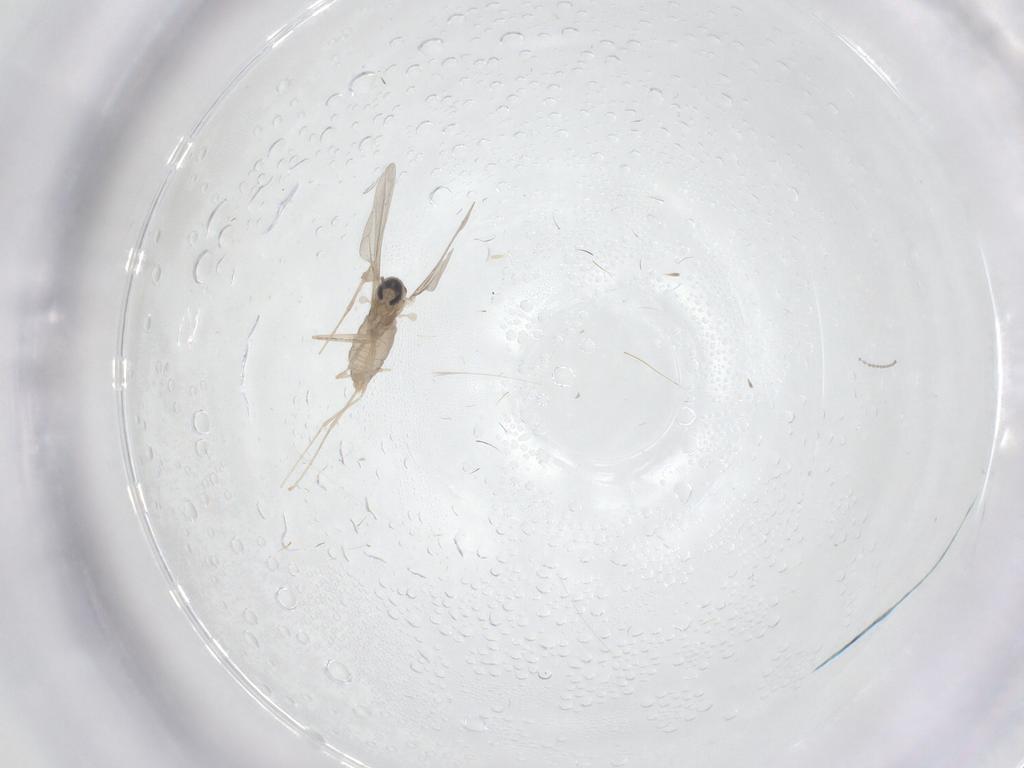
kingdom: Animalia
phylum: Arthropoda
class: Insecta
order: Diptera
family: Cecidomyiidae
